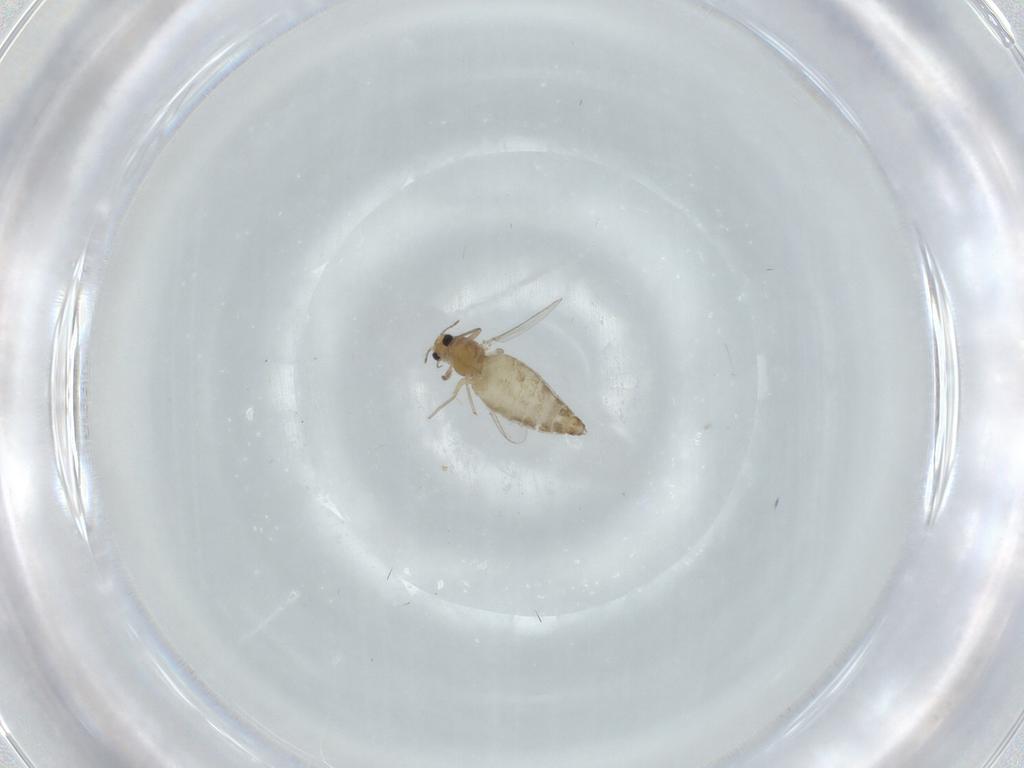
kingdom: Animalia
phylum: Arthropoda
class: Insecta
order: Diptera
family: Chironomidae
